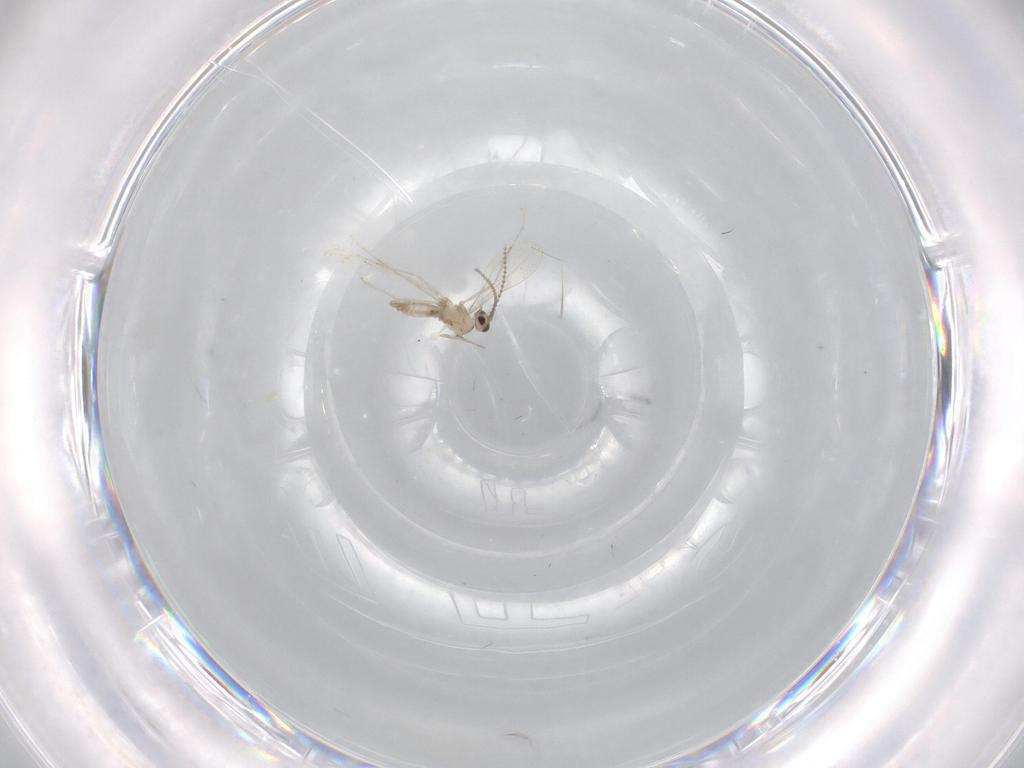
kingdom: Animalia
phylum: Arthropoda
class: Insecta
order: Diptera
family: Cecidomyiidae
